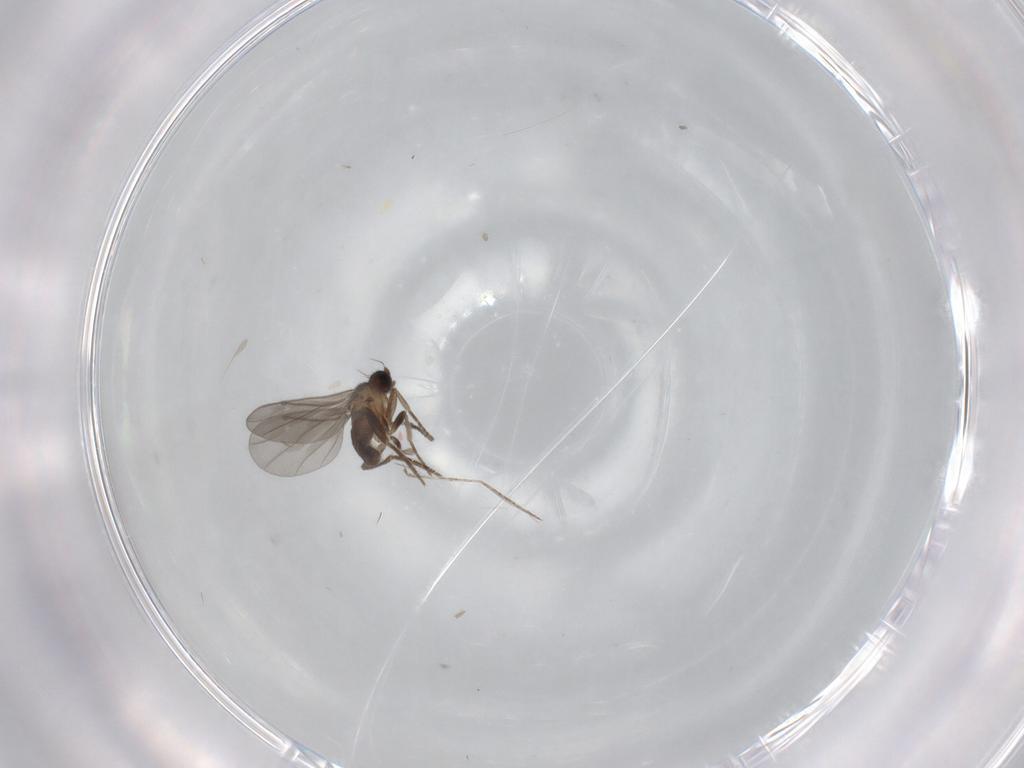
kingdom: Animalia
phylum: Arthropoda
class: Insecta
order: Diptera
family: Phoridae
